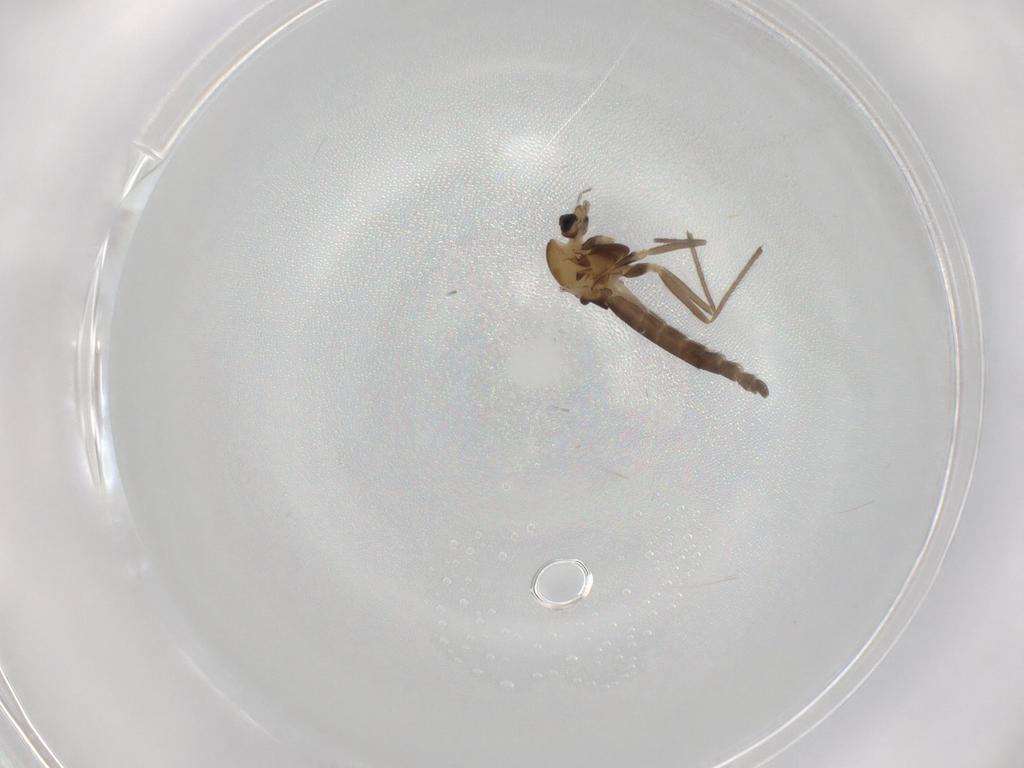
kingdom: Animalia
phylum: Arthropoda
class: Insecta
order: Diptera
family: Chironomidae
